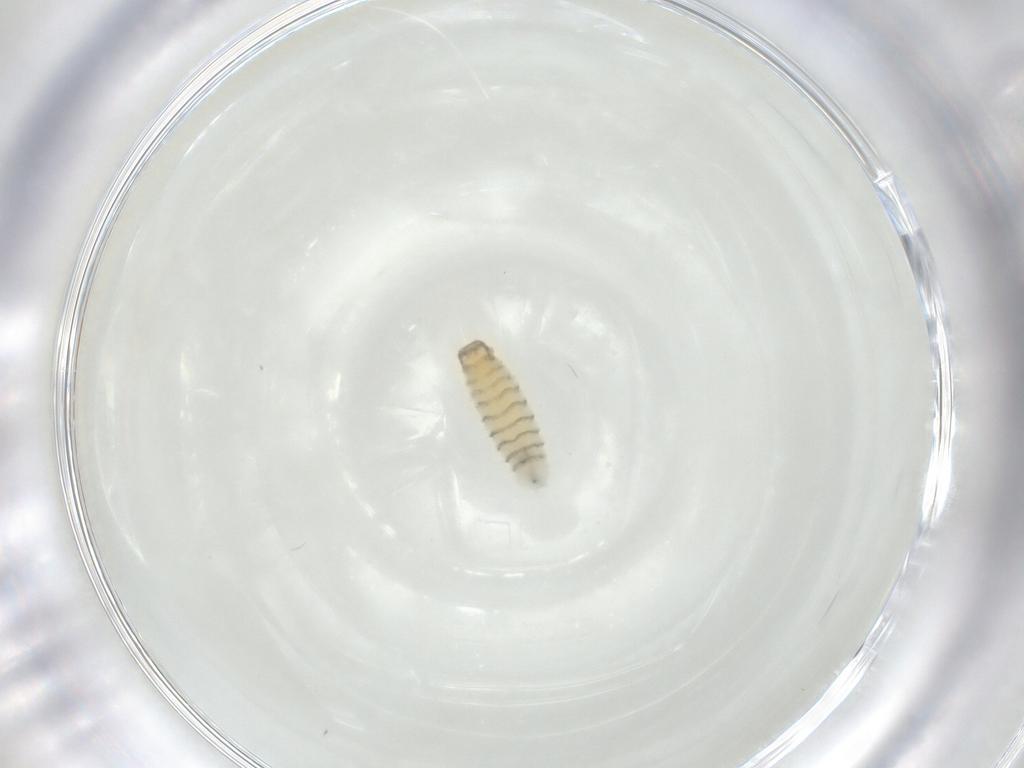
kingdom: Animalia
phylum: Arthropoda
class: Insecta
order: Diptera
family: Sarcophagidae
